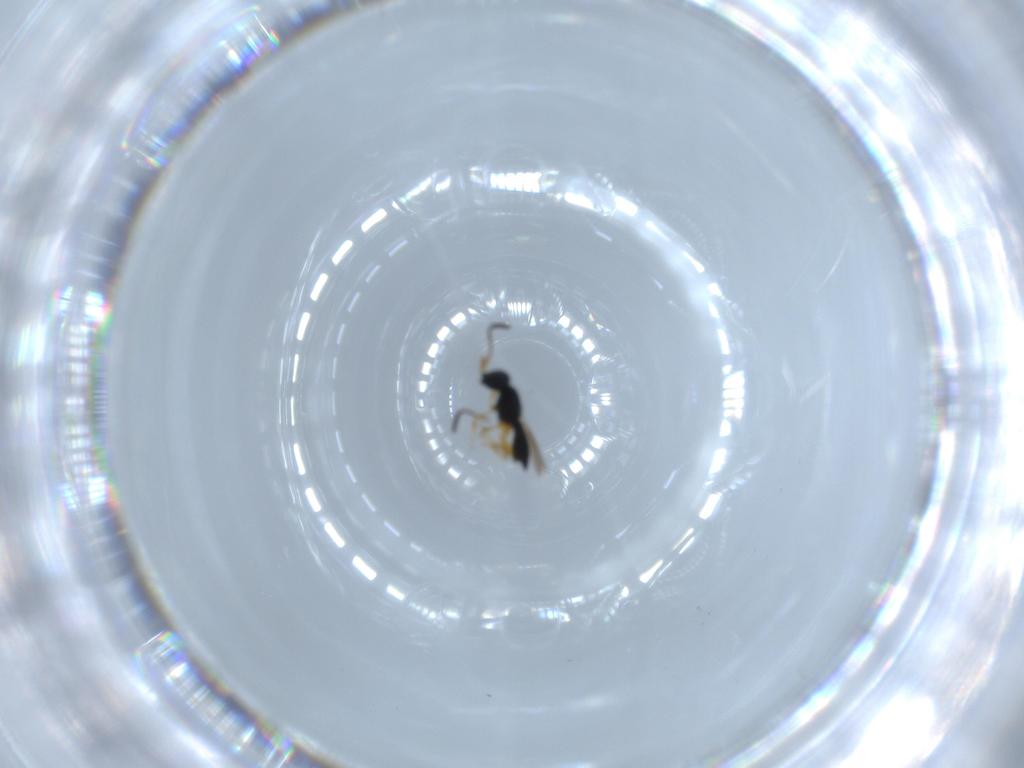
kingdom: Animalia
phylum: Arthropoda
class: Insecta
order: Hymenoptera
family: Scelionidae
